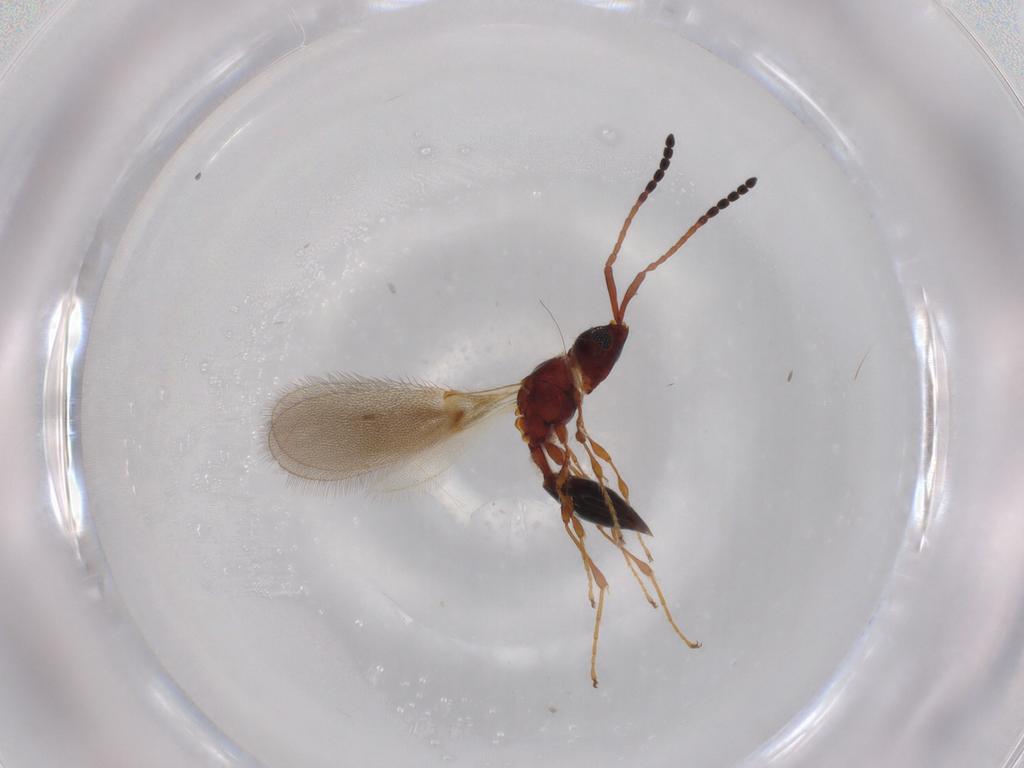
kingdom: Animalia
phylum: Arthropoda
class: Insecta
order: Hymenoptera
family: Diapriidae
